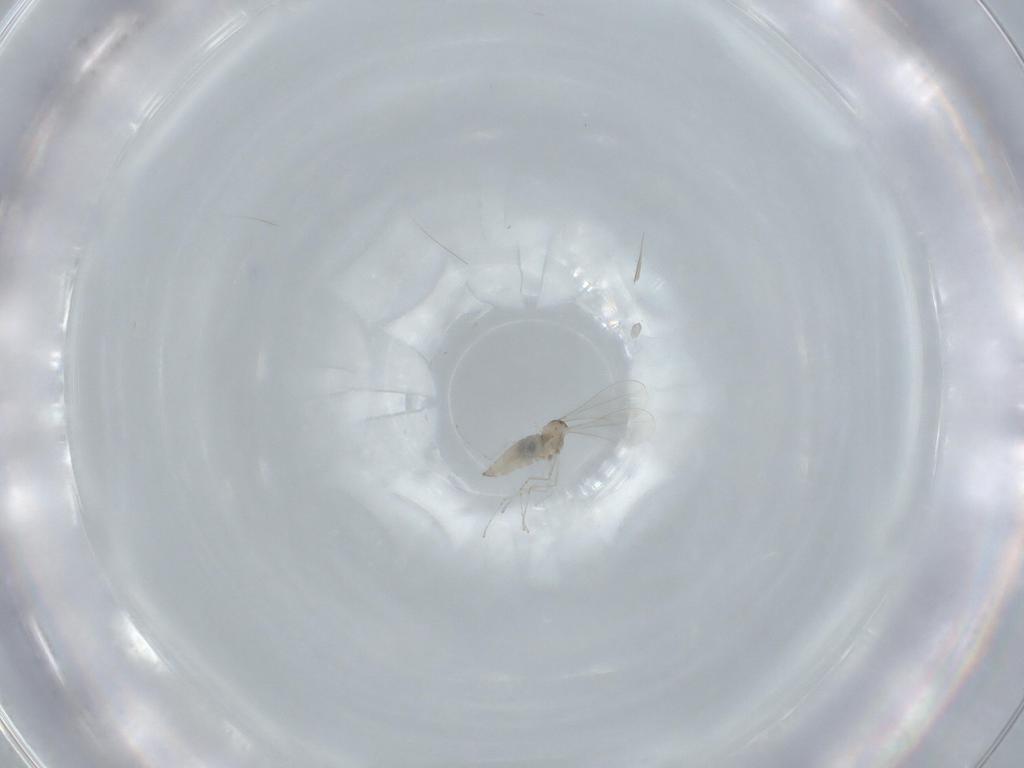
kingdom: Animalia
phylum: Arthropoda
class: Insecta
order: Diptera
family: Cecidomyiidae
